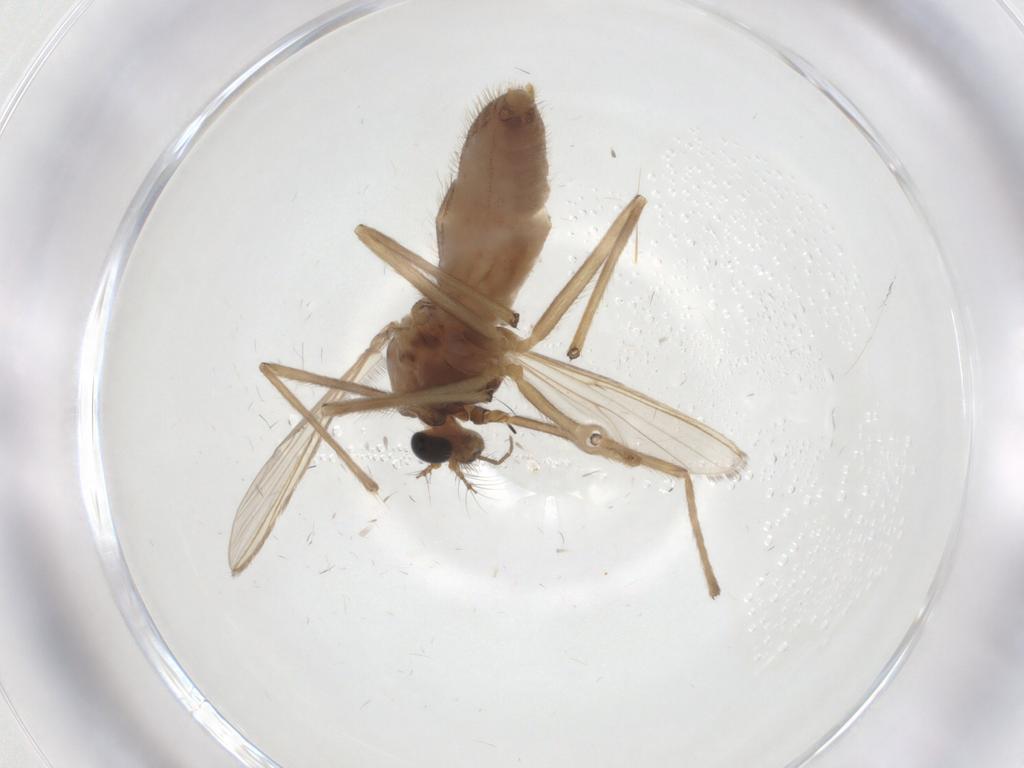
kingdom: Animalia
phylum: Arthropoda
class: Insecta
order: Diptera
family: Chironomidae
